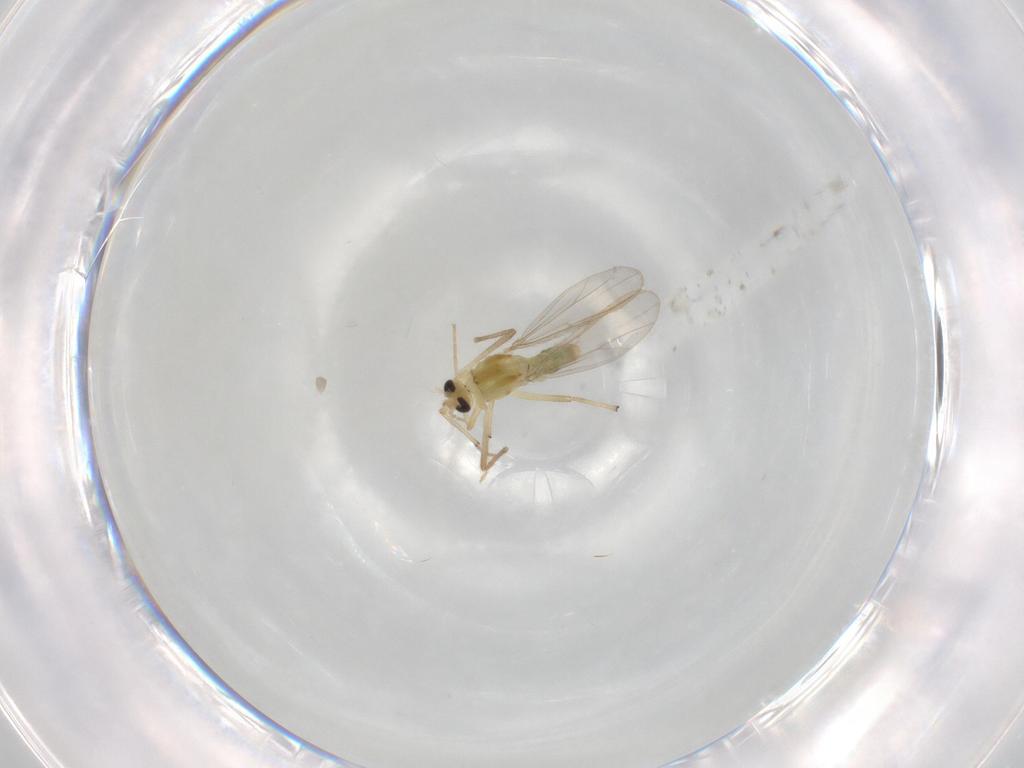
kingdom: Animalia
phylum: Arthropoda
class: Insecta
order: Diptera
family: Chironomidae
